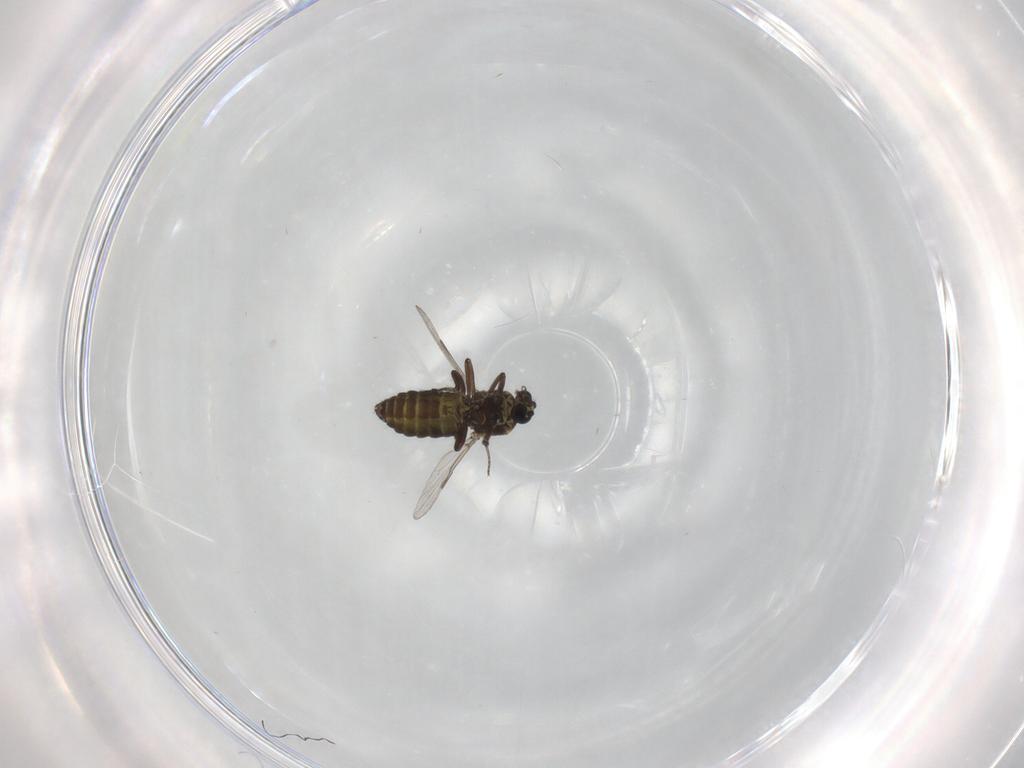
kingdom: Animalia
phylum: Arthropoda
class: Insecta
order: Diptera
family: Ceratopogonidae
